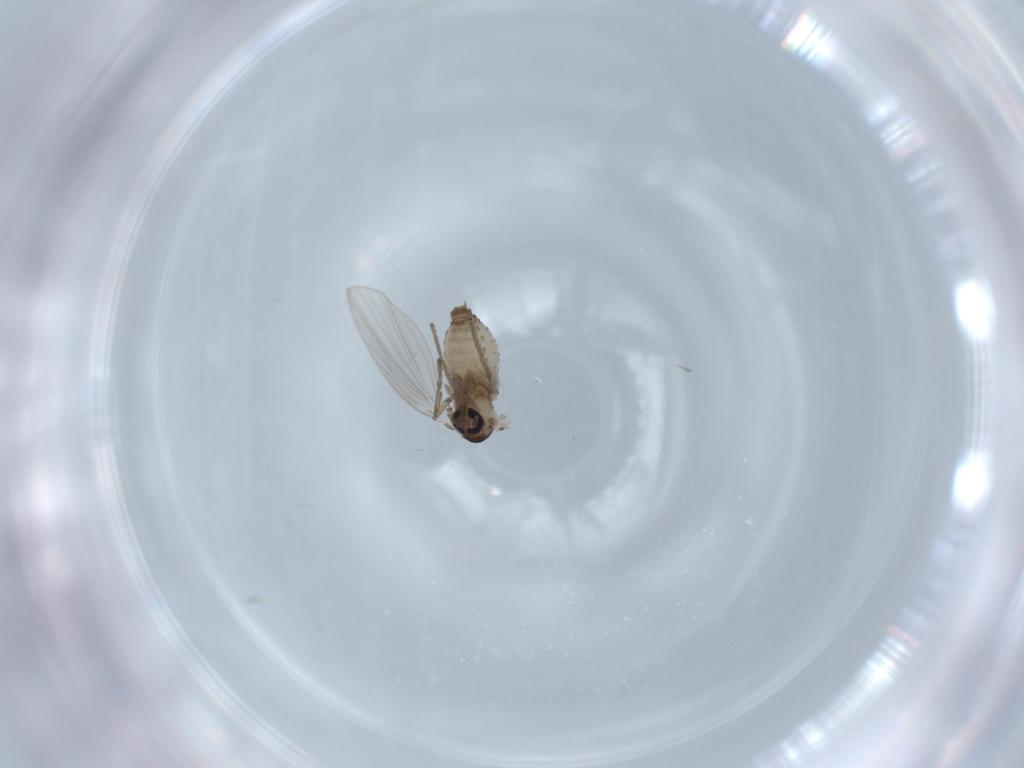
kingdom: Animalia
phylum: Arthropoda
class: Insecta
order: Diptera
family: Psychodidae
